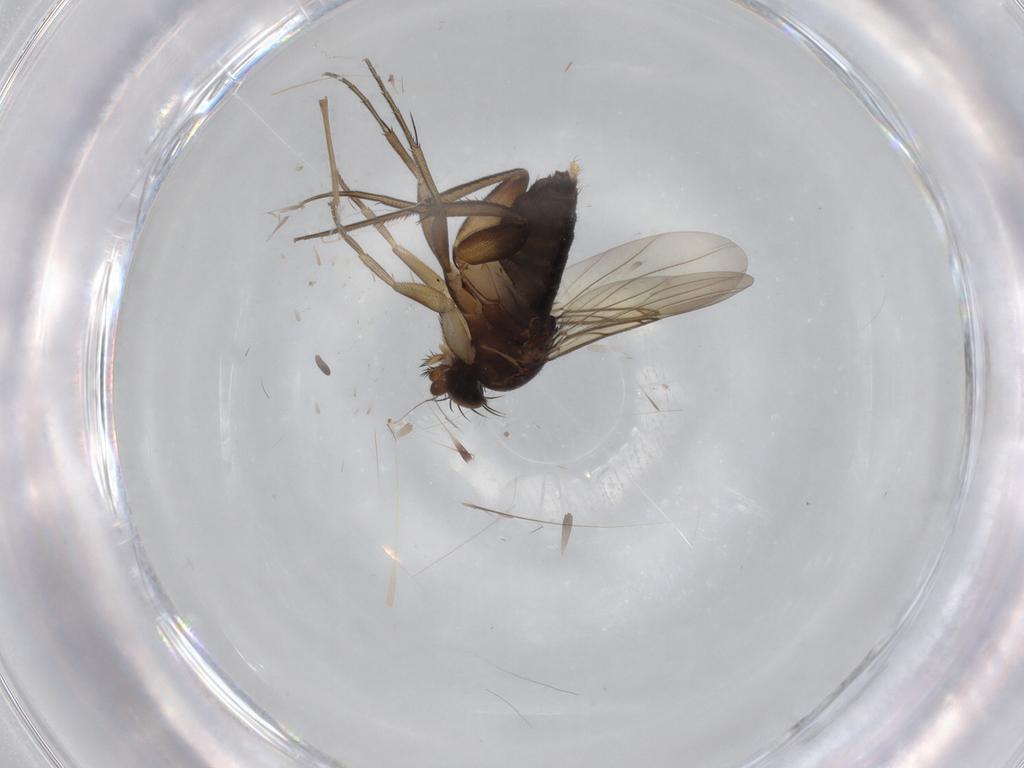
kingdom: Animalia
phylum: Arthropoda
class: Insecta
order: Diptera
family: Phoridae
